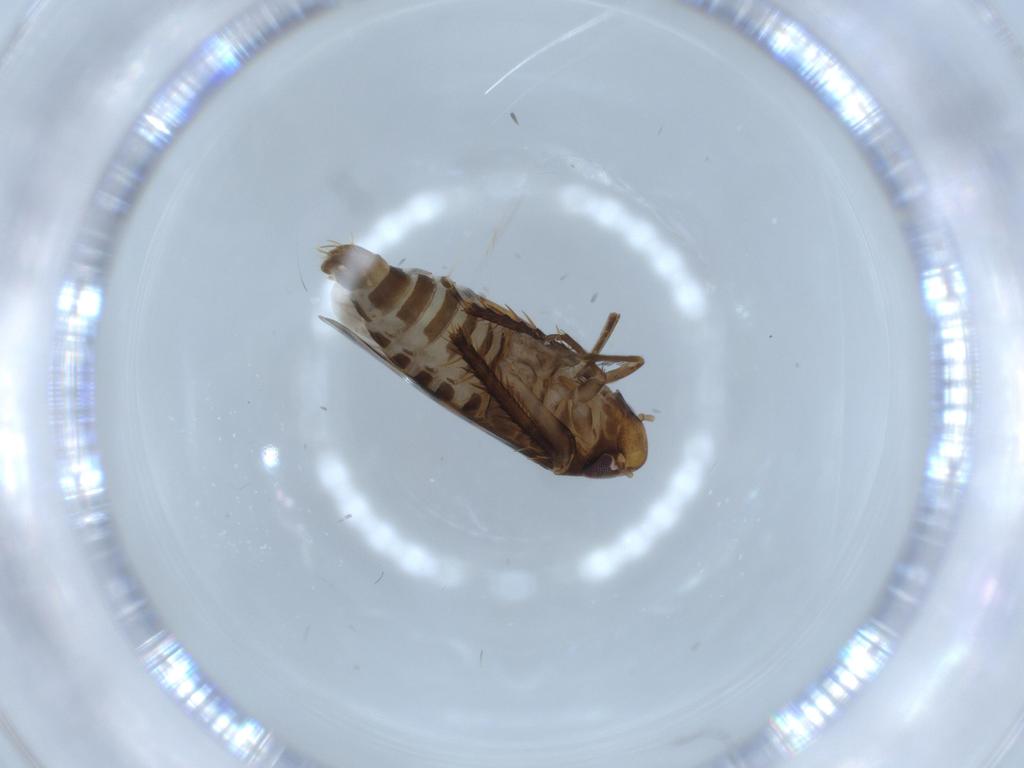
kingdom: Animalia
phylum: Arthropoda
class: Insecta
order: Hemiptera
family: Cicadellidae
